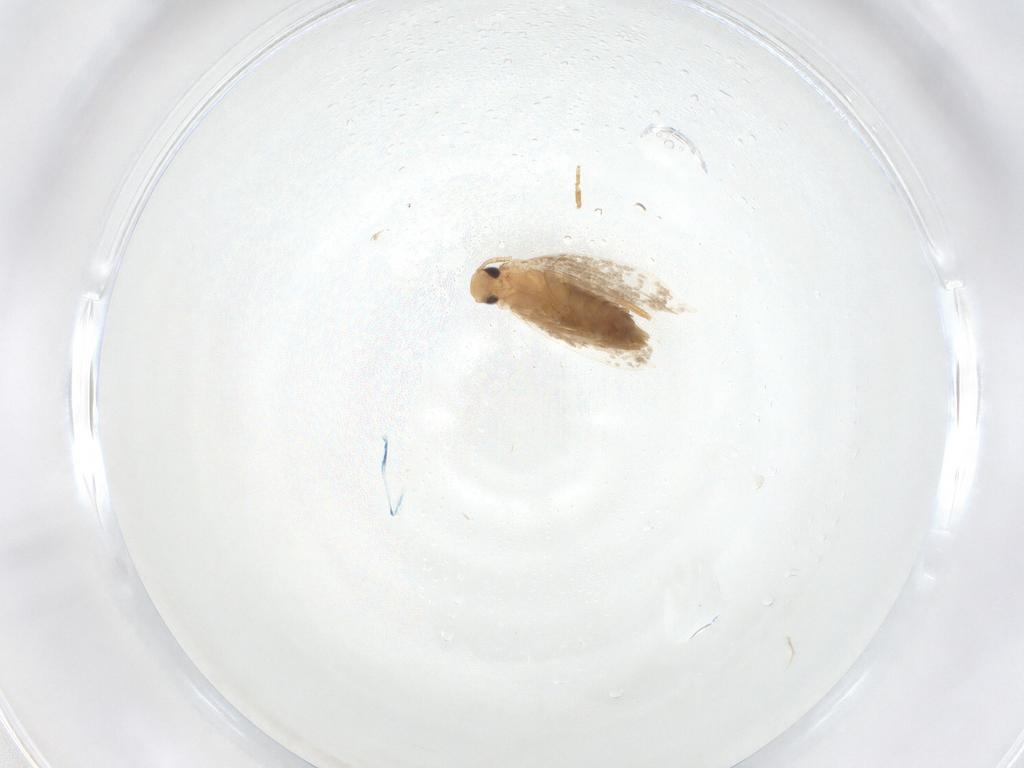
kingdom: Animalia
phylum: Arthropoda
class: Insecta
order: Lepidoptera
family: Tineidae
